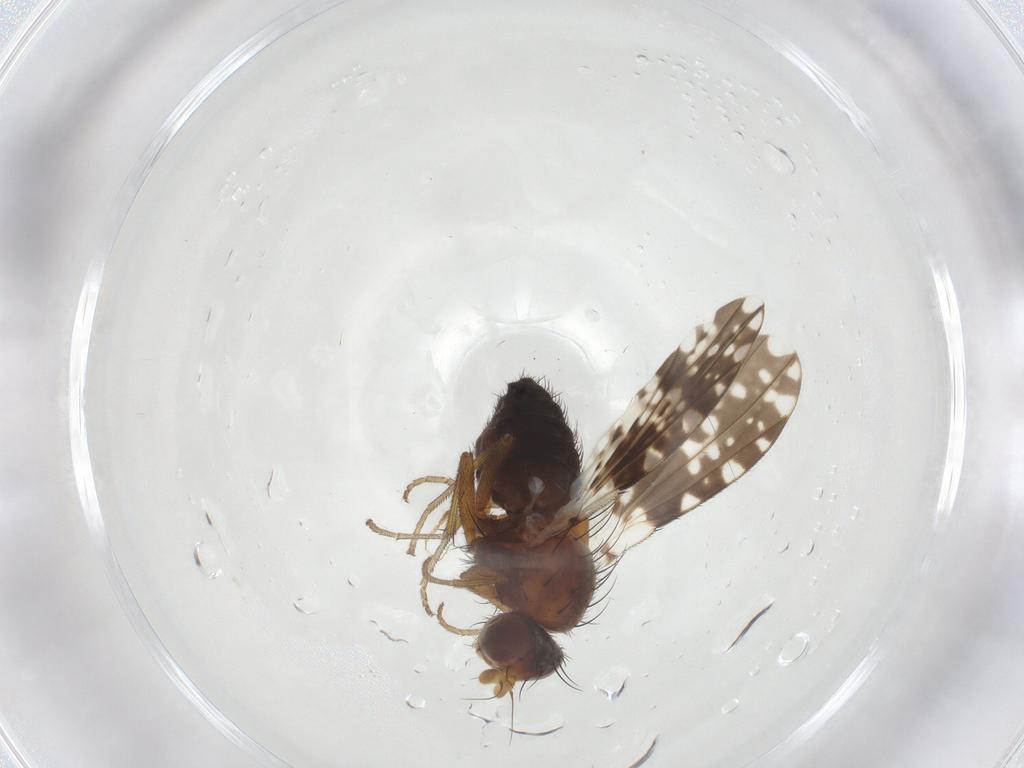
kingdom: Animalia
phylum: Arthropoda
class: Insecta
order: Diptera
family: Chloropidae
